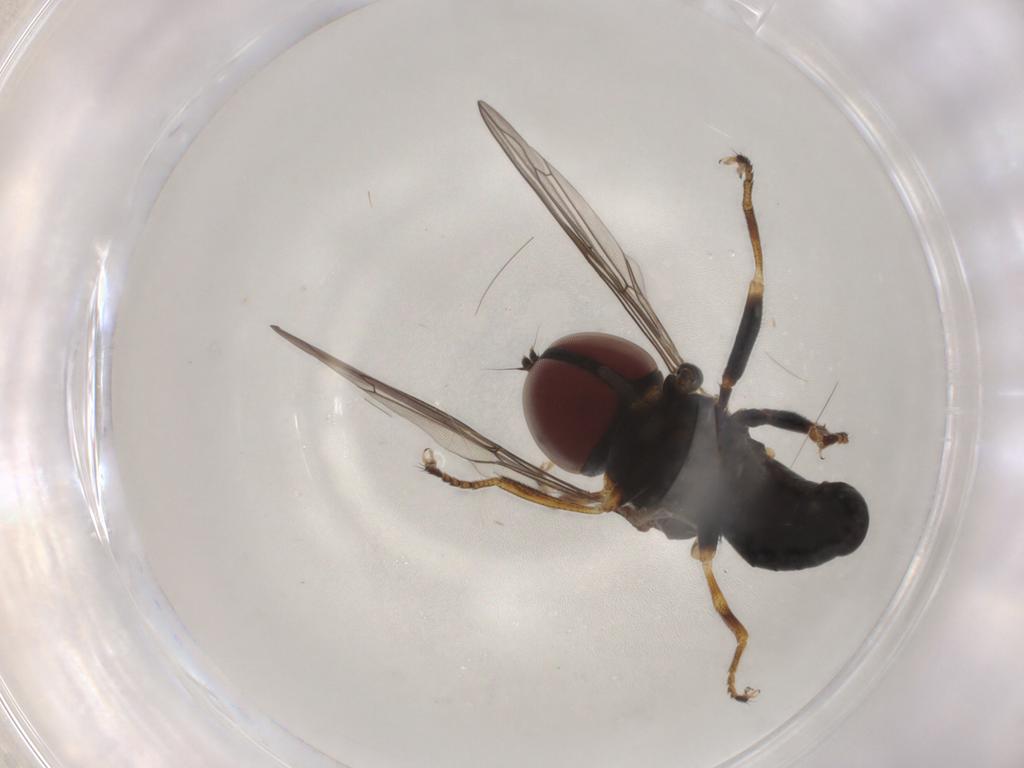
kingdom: Animalia
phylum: Arthropoda
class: Insecta
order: Diptera
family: Pipunculidae
